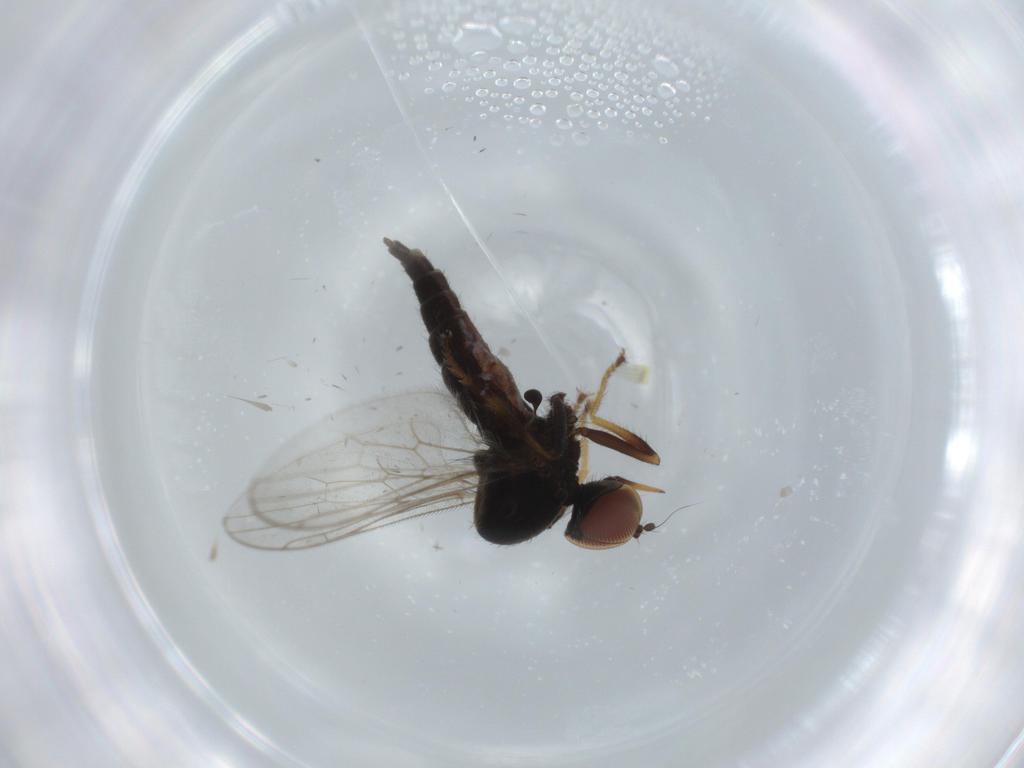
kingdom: Animalia
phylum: Arthropoda
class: Insecta
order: Diptera
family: Hybotidae
